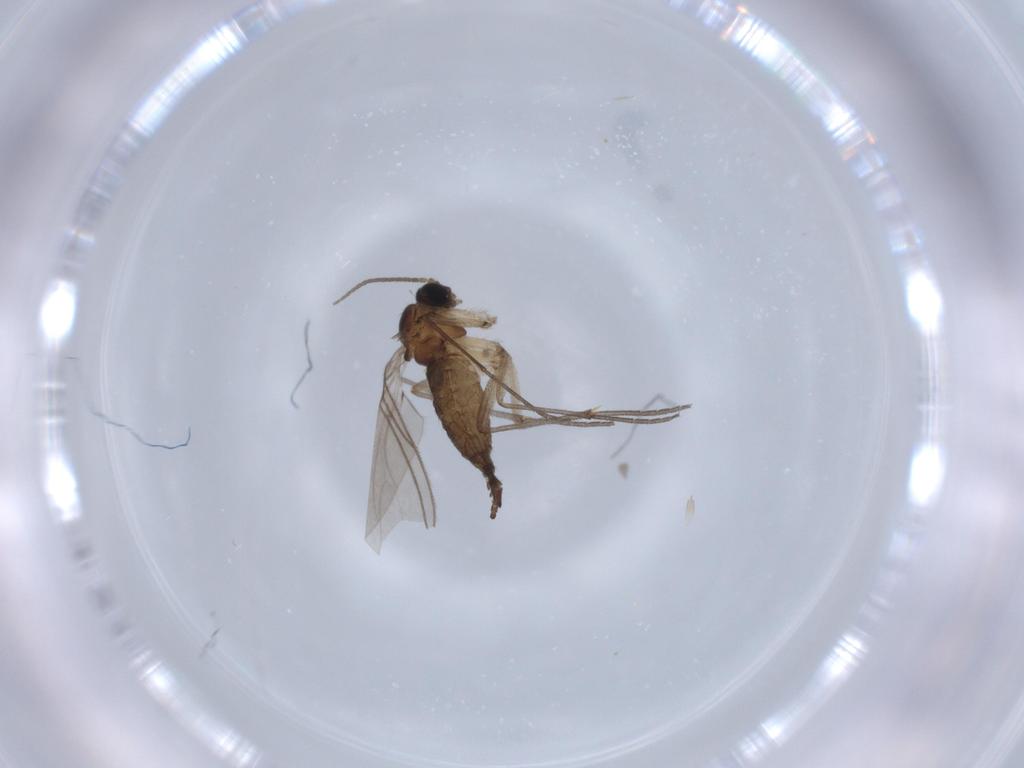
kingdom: Animalia
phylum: Arthropoda
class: Insecta
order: Diptera
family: Sciaridae
